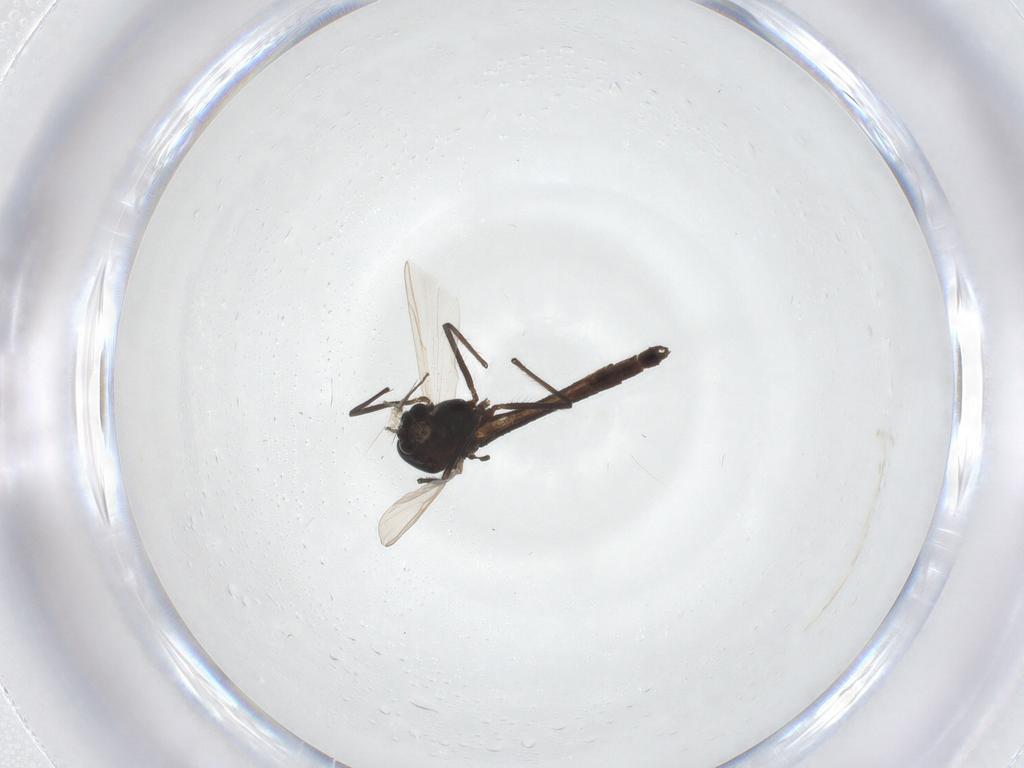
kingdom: Animalia
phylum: Arthropoda
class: Insecta
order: Diptera
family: Chironomidae
